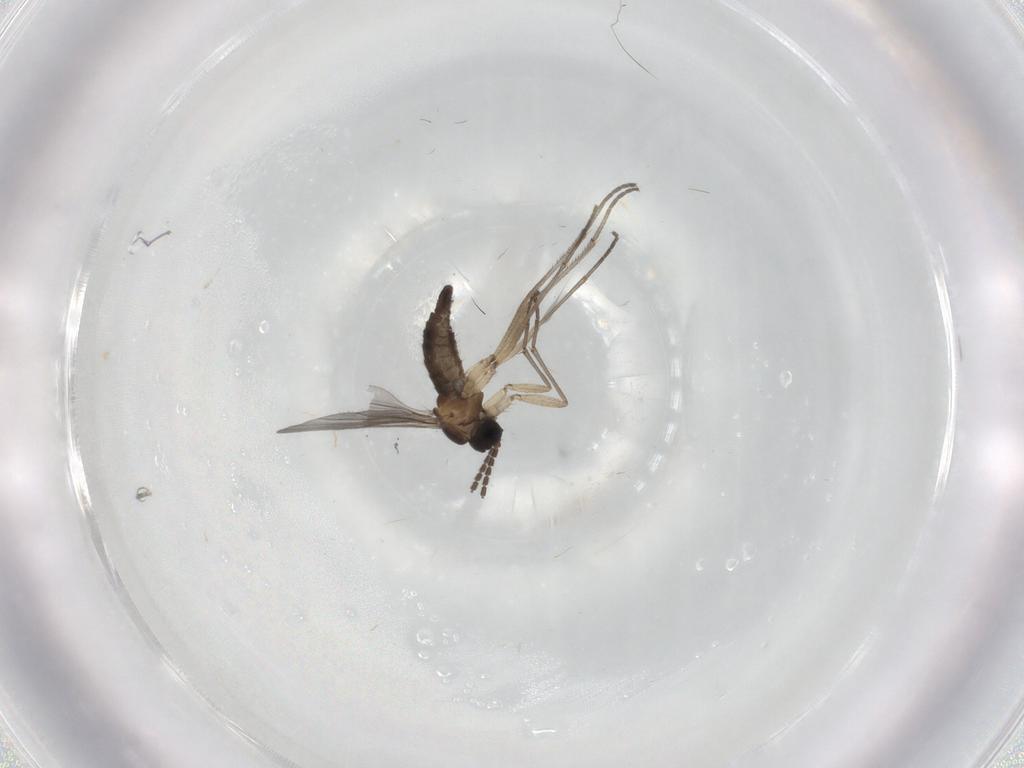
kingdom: Animalia
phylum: Arthropoda
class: Insecta
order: Diptera
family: Sciaridae
